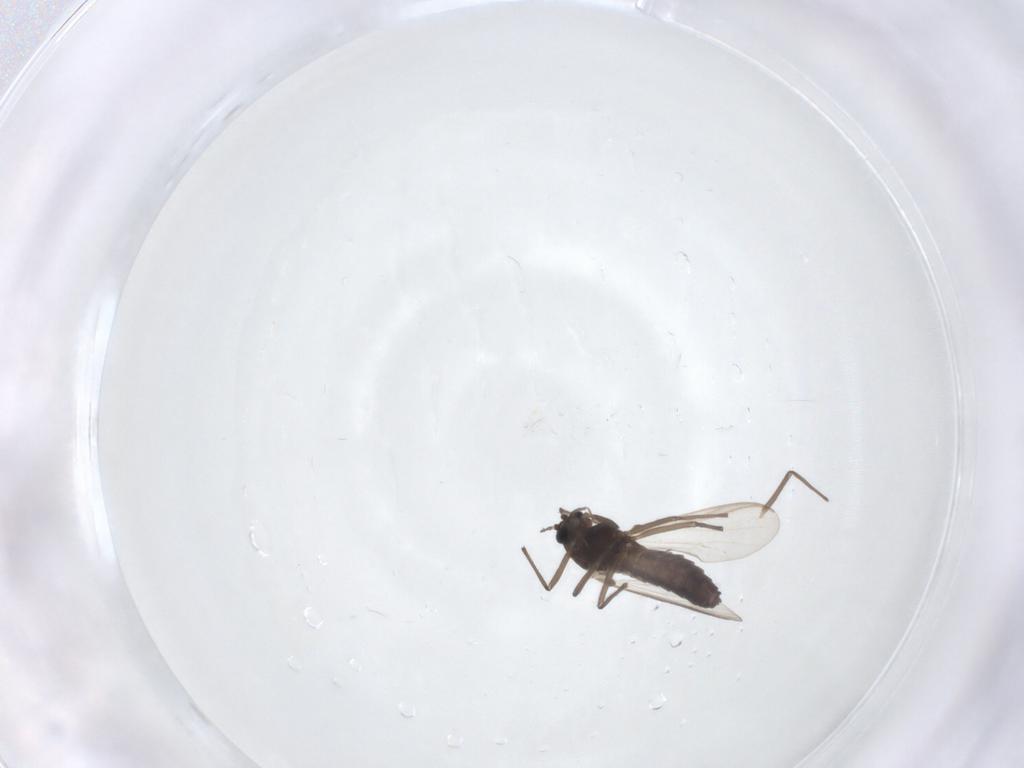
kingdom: Animalia
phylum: Arthropoda
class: Insecta
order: Diptera
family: Chironomidae
